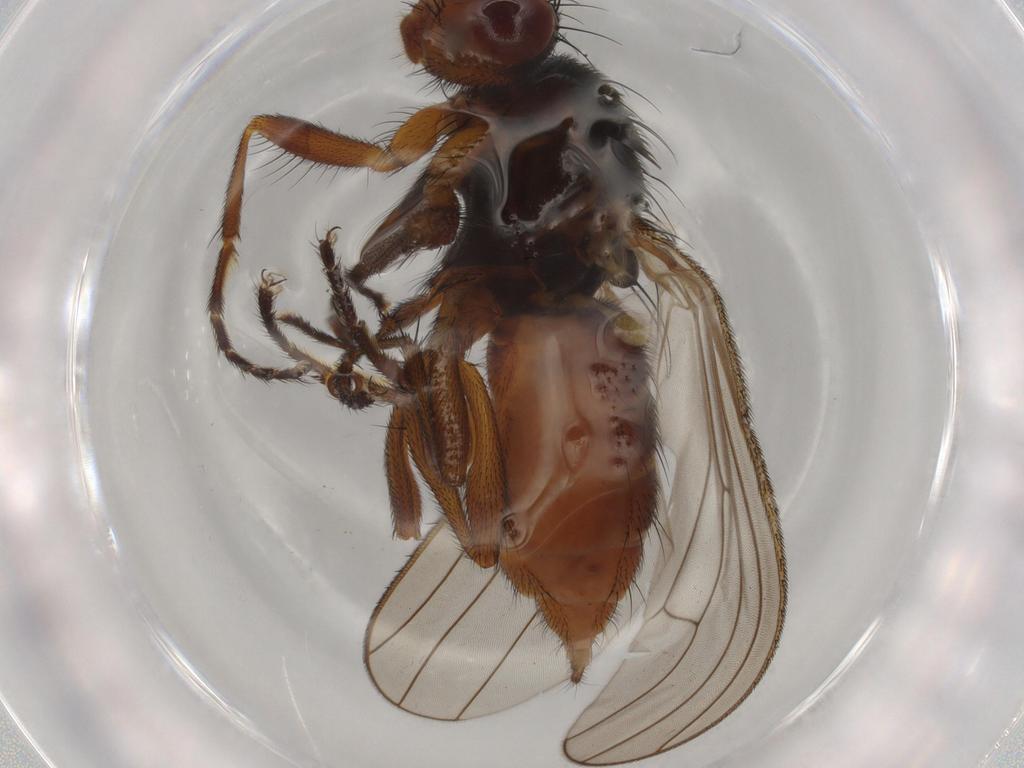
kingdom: Animalia
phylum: Arthropoda
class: Insecta
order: Diptera
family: Heleomyzidae
